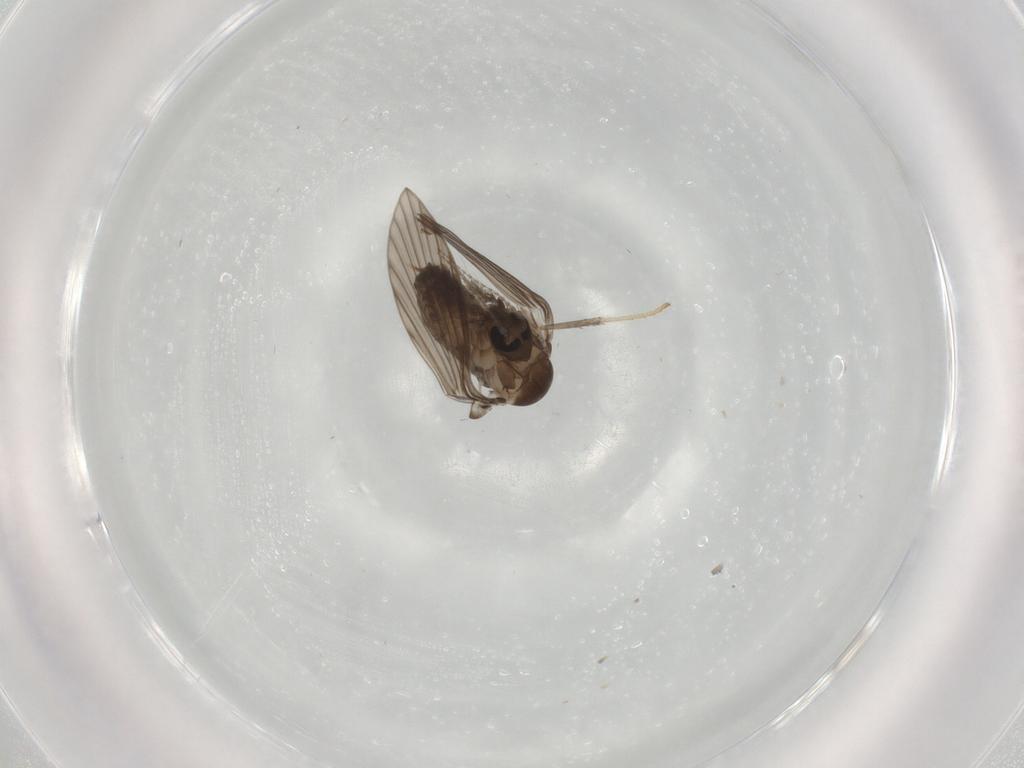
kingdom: Animalia
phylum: Arthropoda
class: Insecta
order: Diptera
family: Psychodidae
